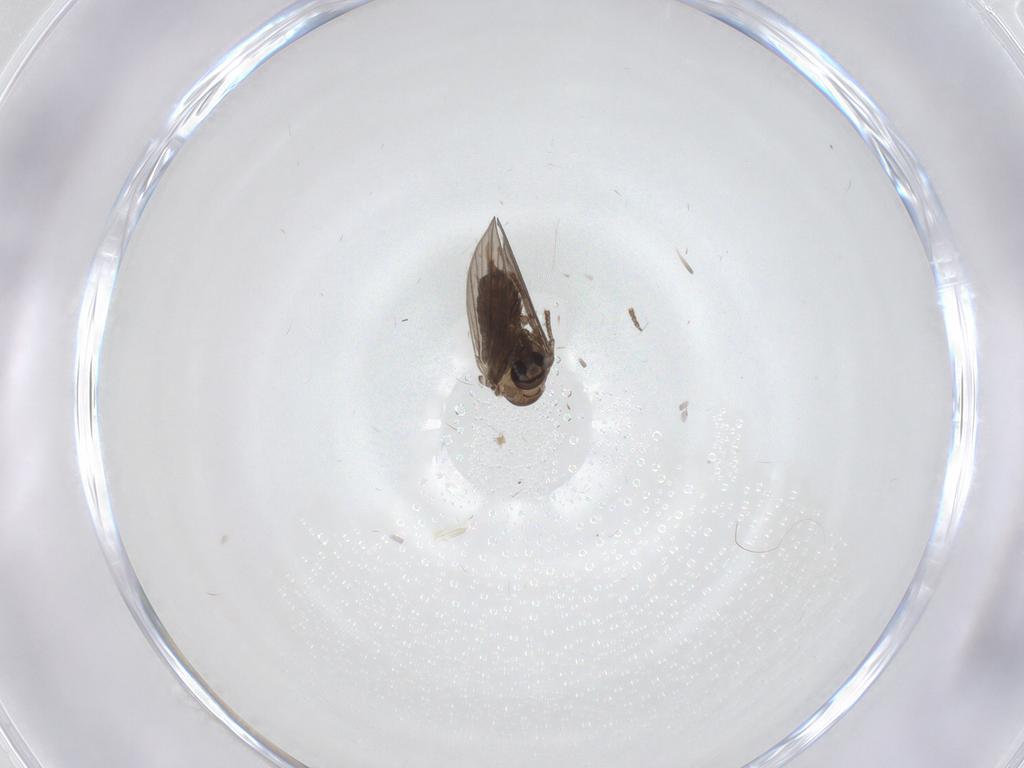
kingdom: Animalia
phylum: Arthropoda
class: Insecta
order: Diptera
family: Psychodidae
